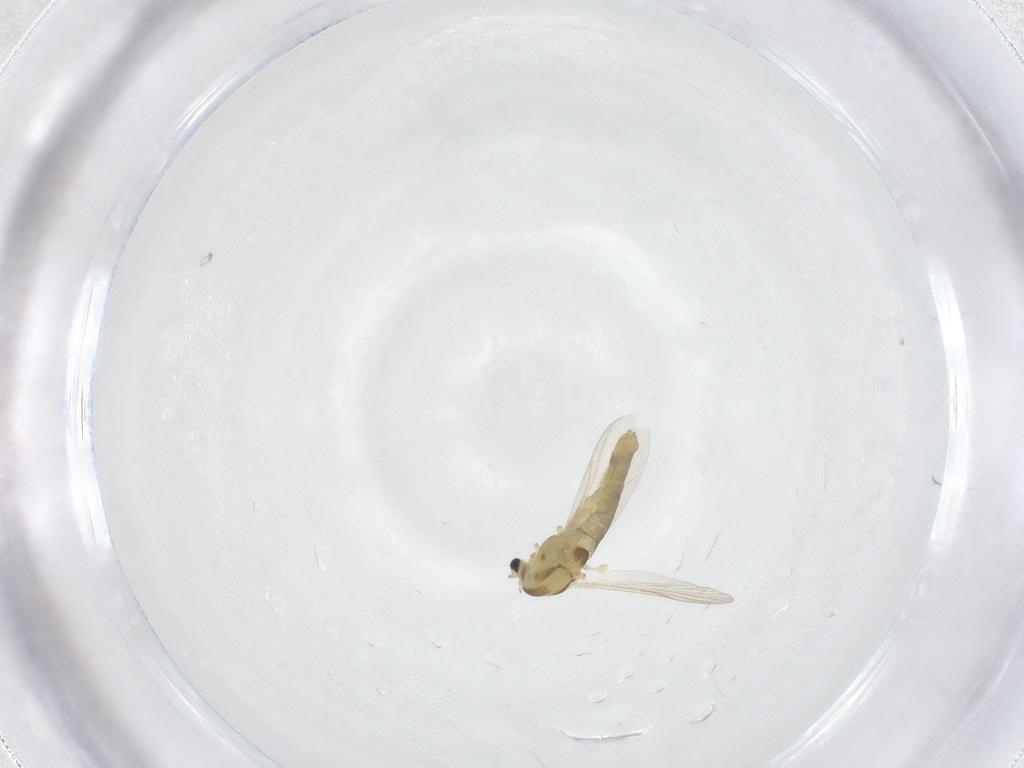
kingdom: Animalia
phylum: Arthropoda
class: Insecta
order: Diptera
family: Chironomidae
